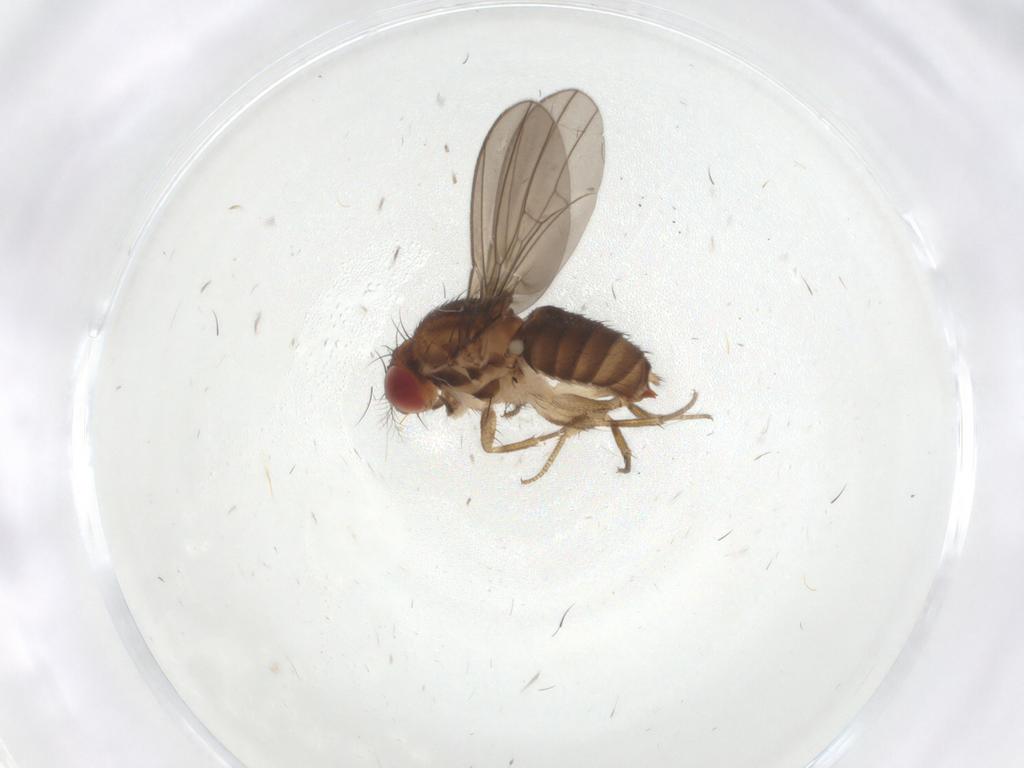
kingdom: Animalia
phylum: Arthropoda
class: Insecta
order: Diptera
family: Drosophilidae
